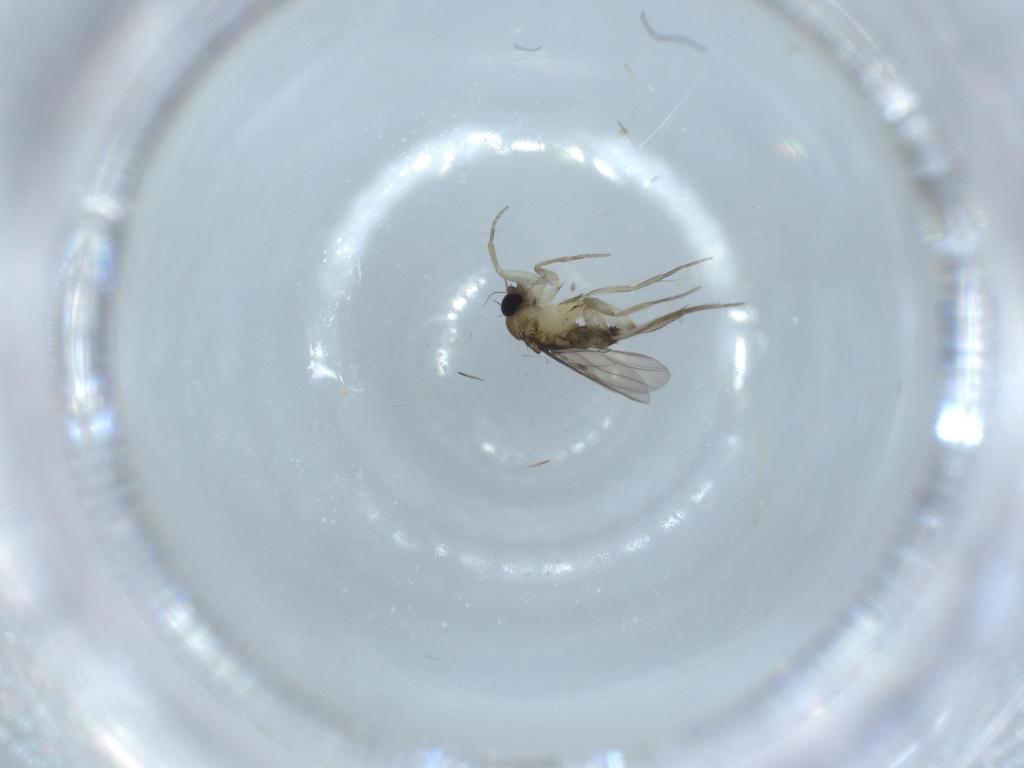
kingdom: Animalia
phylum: Arthropoda
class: Insecta
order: Diptera
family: Phoridae
